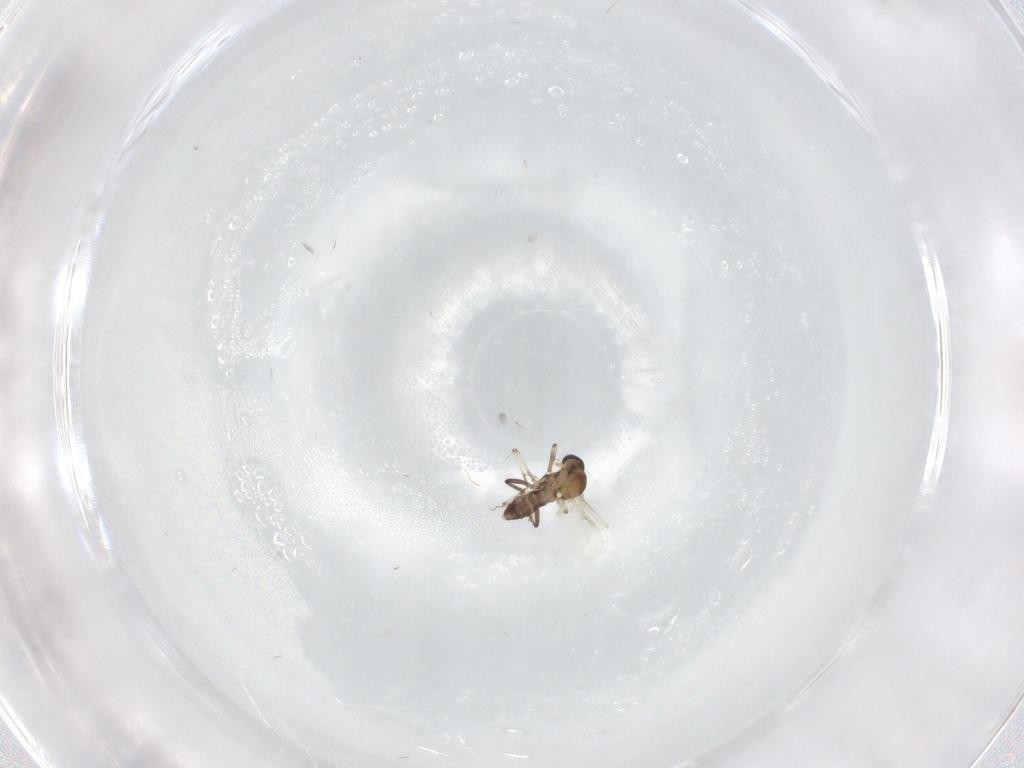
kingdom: Animalia
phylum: Arthropoda
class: Insecta
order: Diptera
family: Ceratopogonidae
